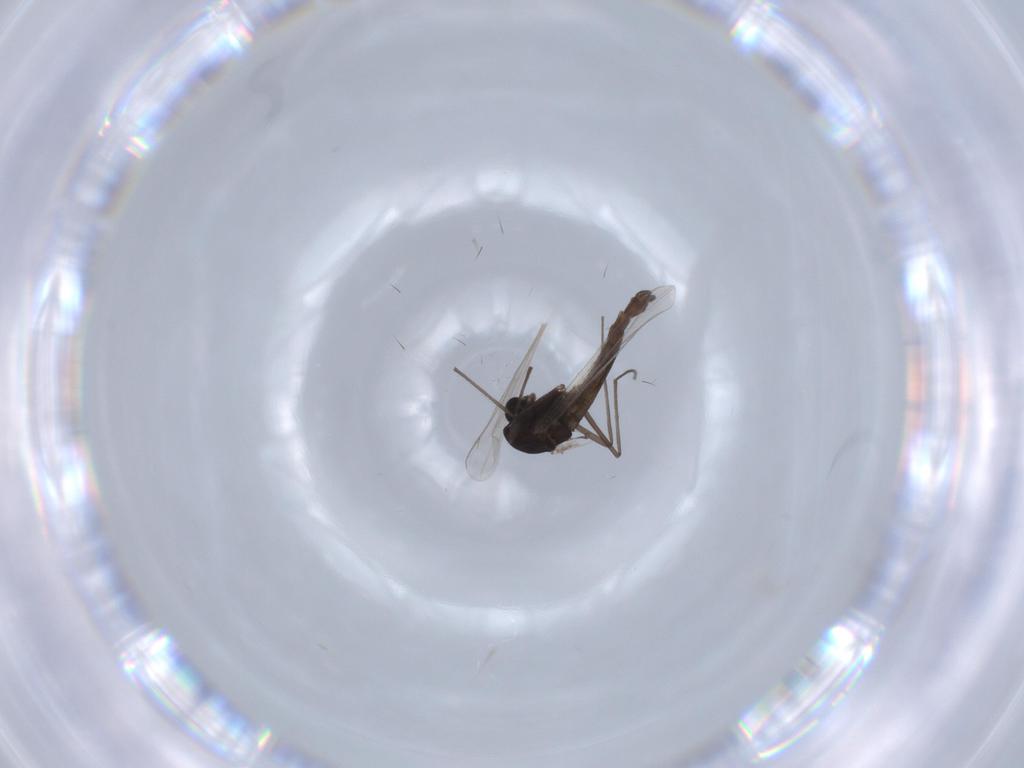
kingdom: Animalia
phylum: Arthropoda
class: Insecta
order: Diptera
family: Chironomidae
